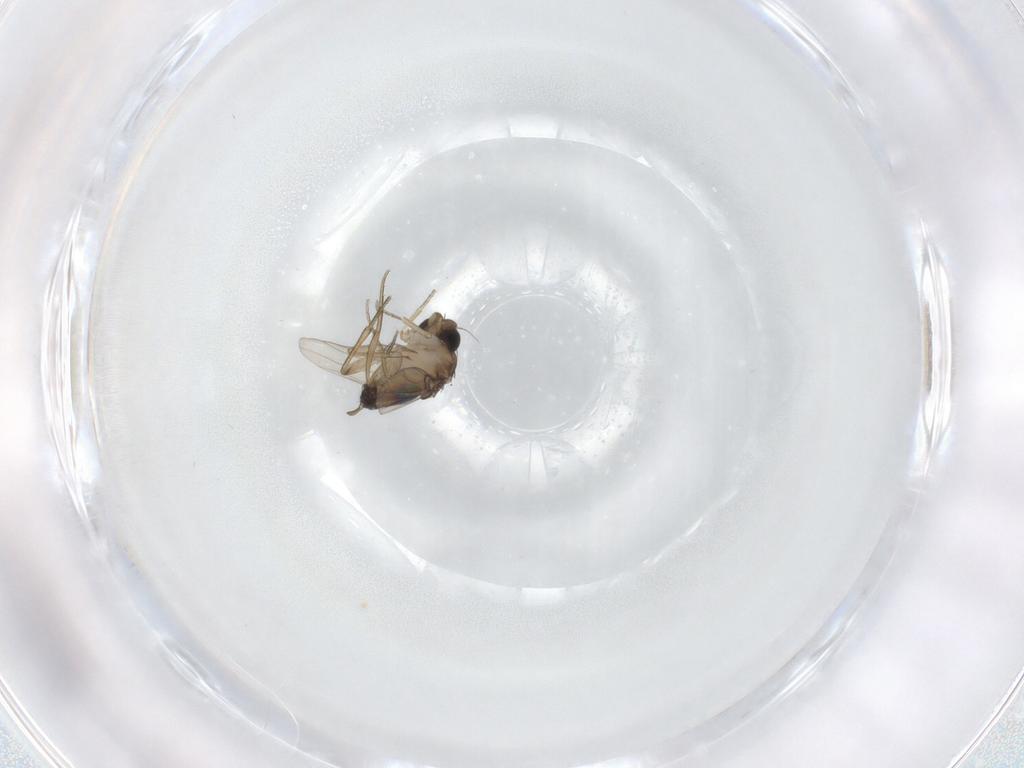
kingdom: Animalia
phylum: Arthropoda
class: Insecta
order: Diptera
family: Phoridae
